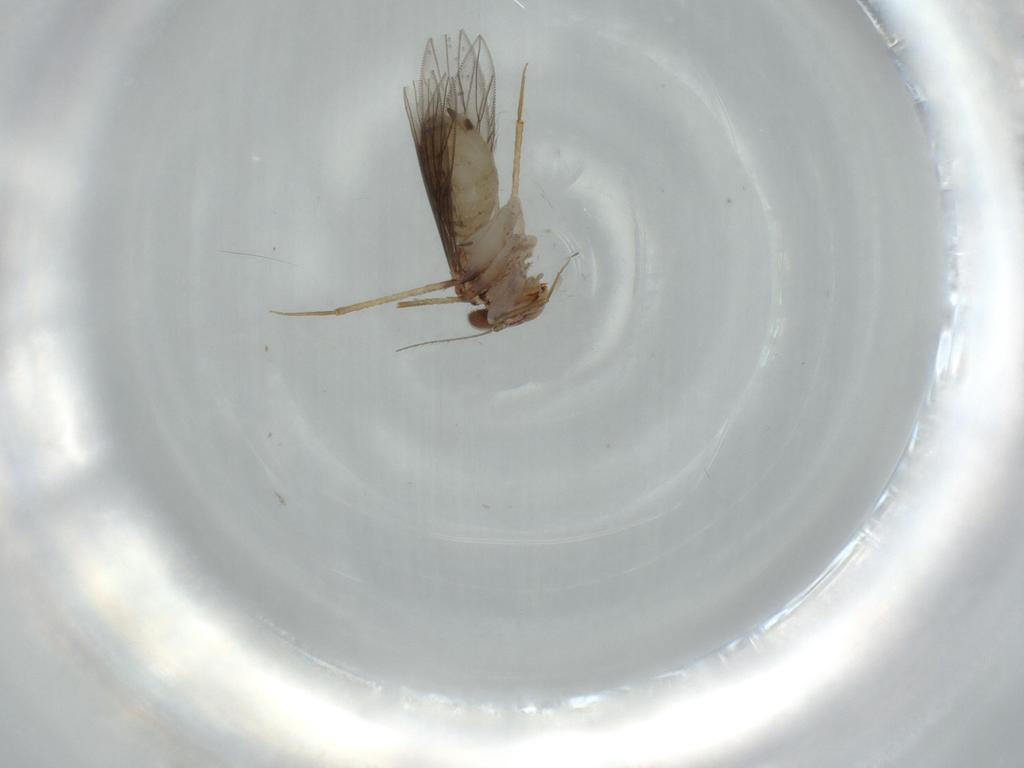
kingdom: Animalia
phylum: Arthropoda
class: Insecta
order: Psocodea
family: Lepidopsocidae
